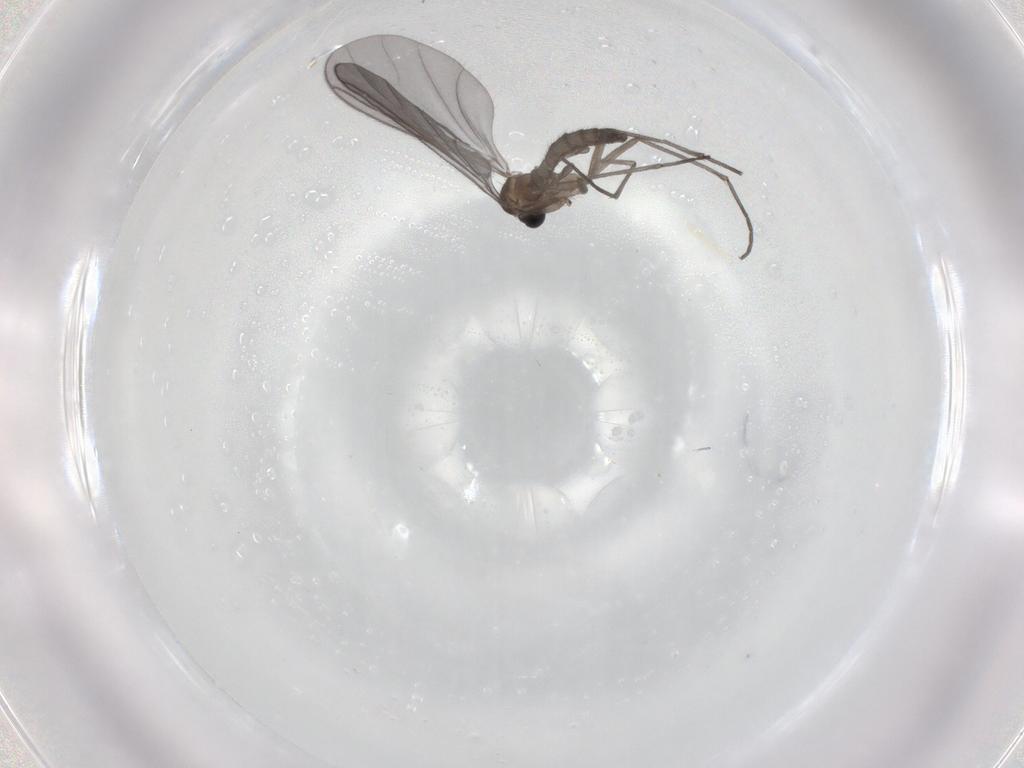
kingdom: Animalia
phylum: Arthropoda
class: Insecta
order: Diptera
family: Sciaridae
